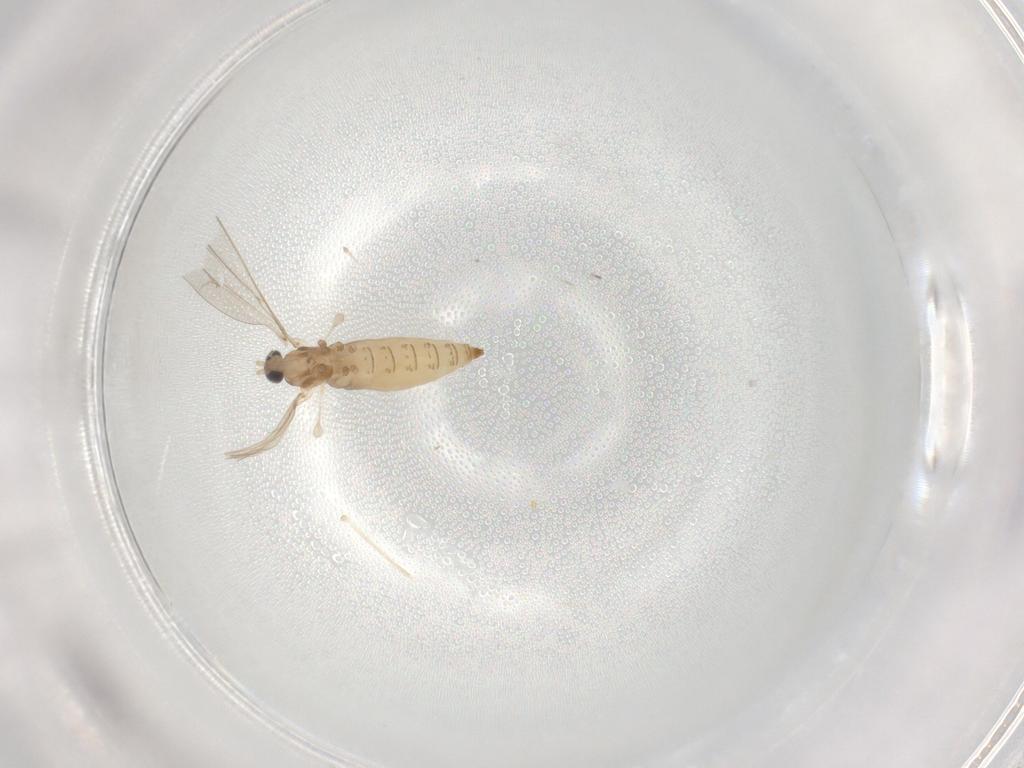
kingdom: Animalia
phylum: Arthropoda
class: Insecta
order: Diptera
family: Cecidomyiidae
